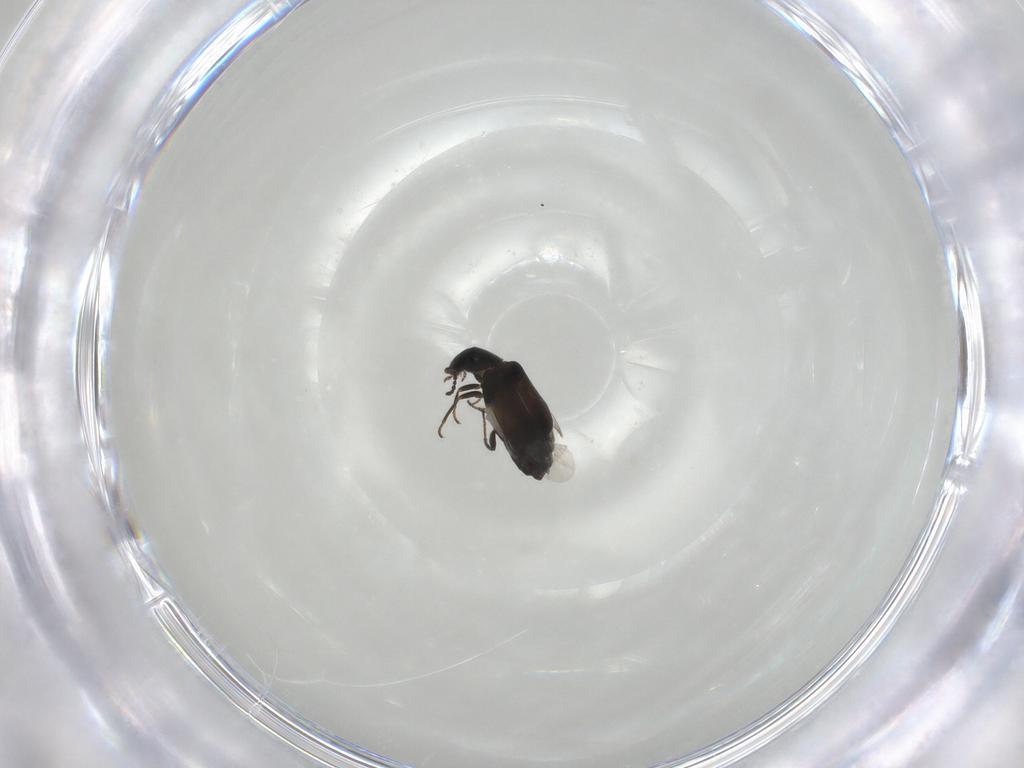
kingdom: Animalia
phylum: Arthropoda
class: Insecta
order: Coleoptera
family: Melyridae
